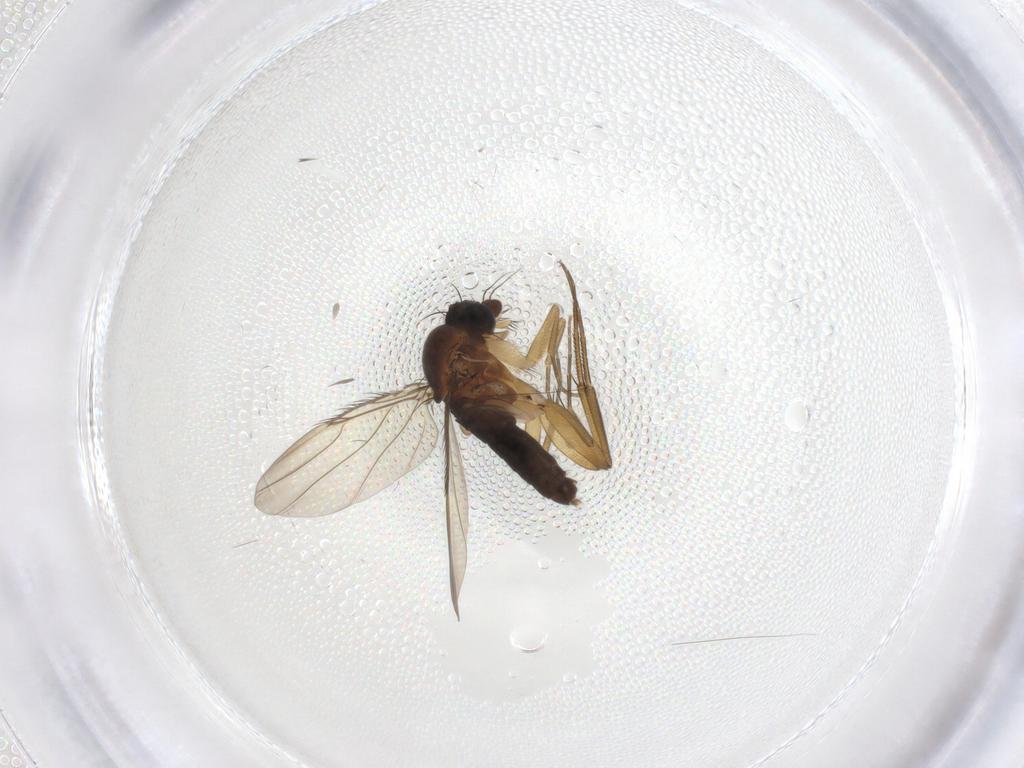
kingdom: Animalia
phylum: Arthropoda
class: Insecta
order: Diptera
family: Phoridae
